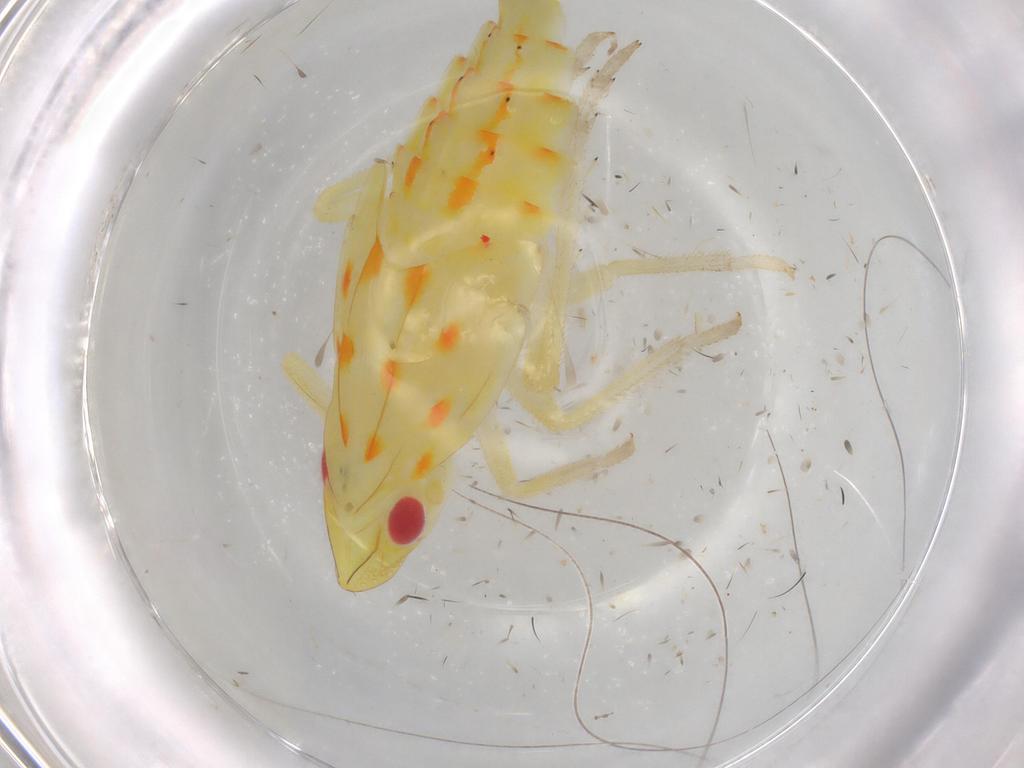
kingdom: Animalia
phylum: Arthropoda
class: Insecta
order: Hemiptera
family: Tropiduchidae
